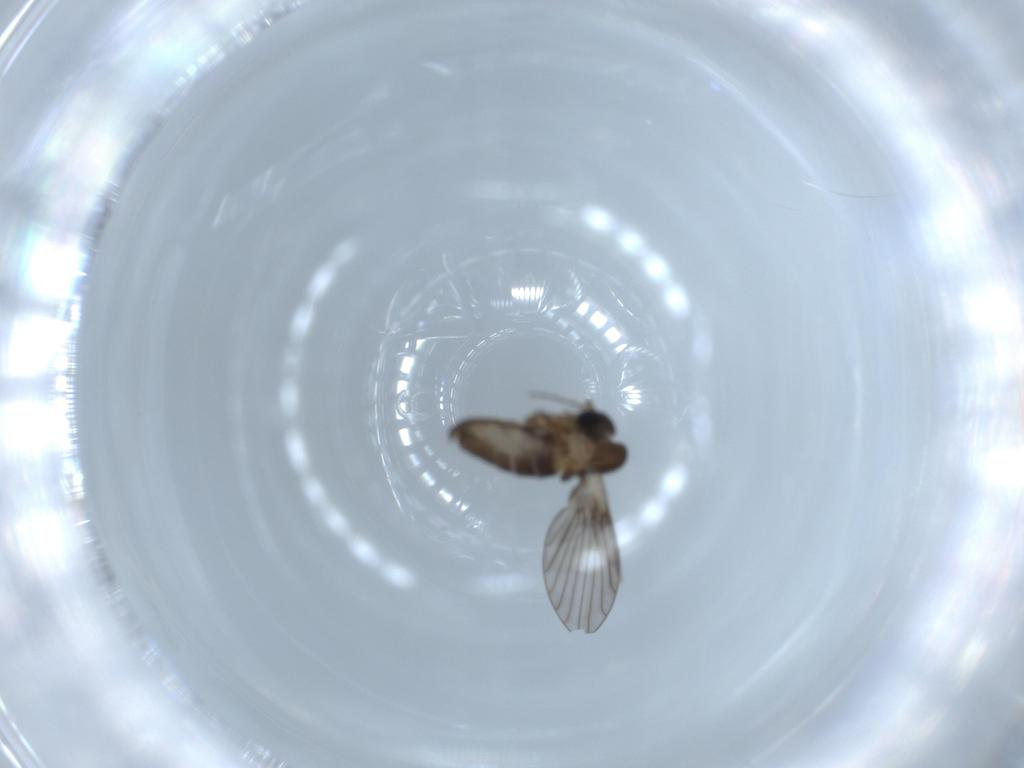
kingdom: Animalia
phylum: Arthropoda
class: Insecta
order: Diptera
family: Psychodidae
